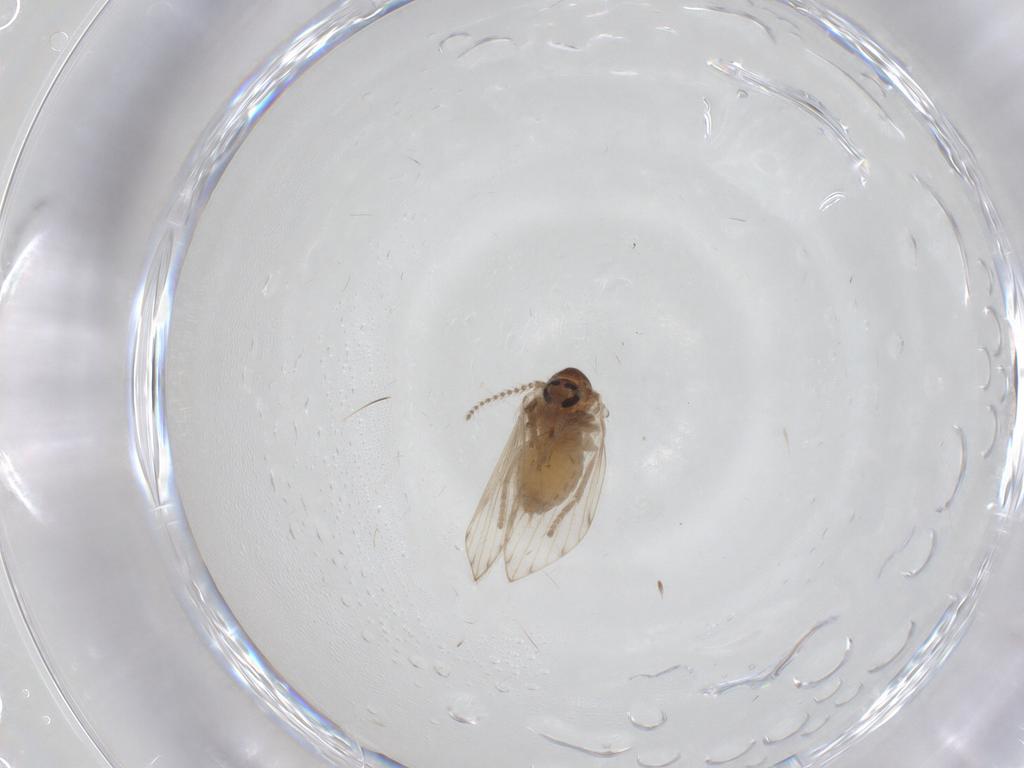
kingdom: Animalia
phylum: Arthropoda
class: Insecta
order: Diptera
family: Psychodidae
